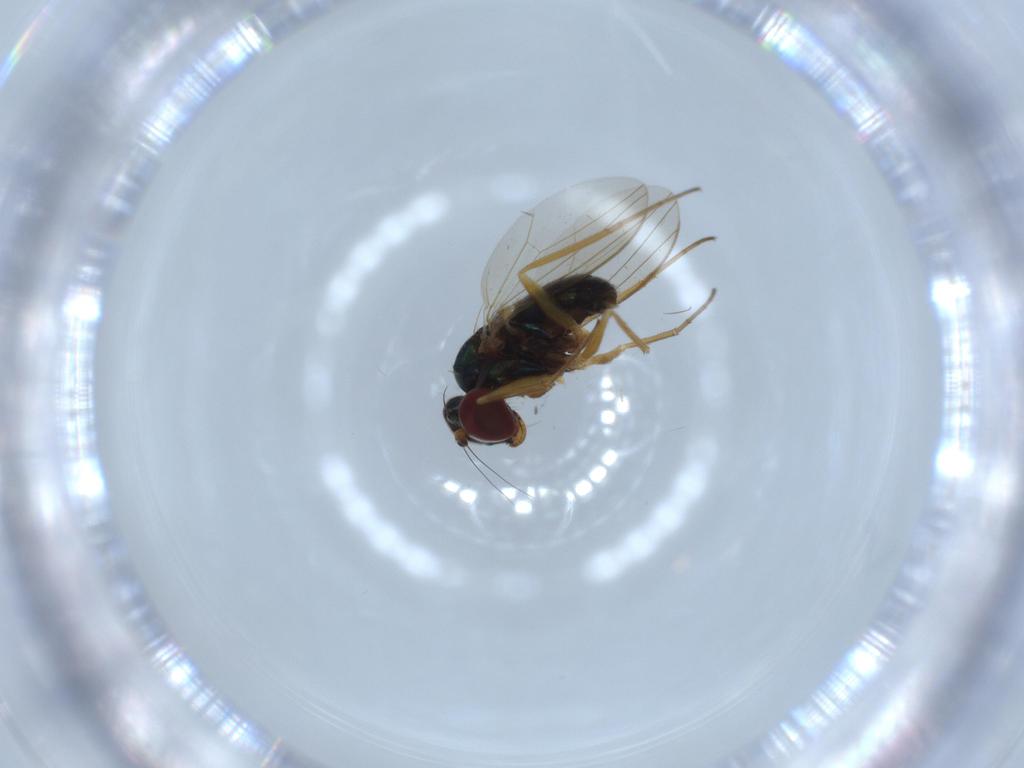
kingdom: Animalia
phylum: Arthropoda
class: Insecta
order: Diptera
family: Dolichopodidae
